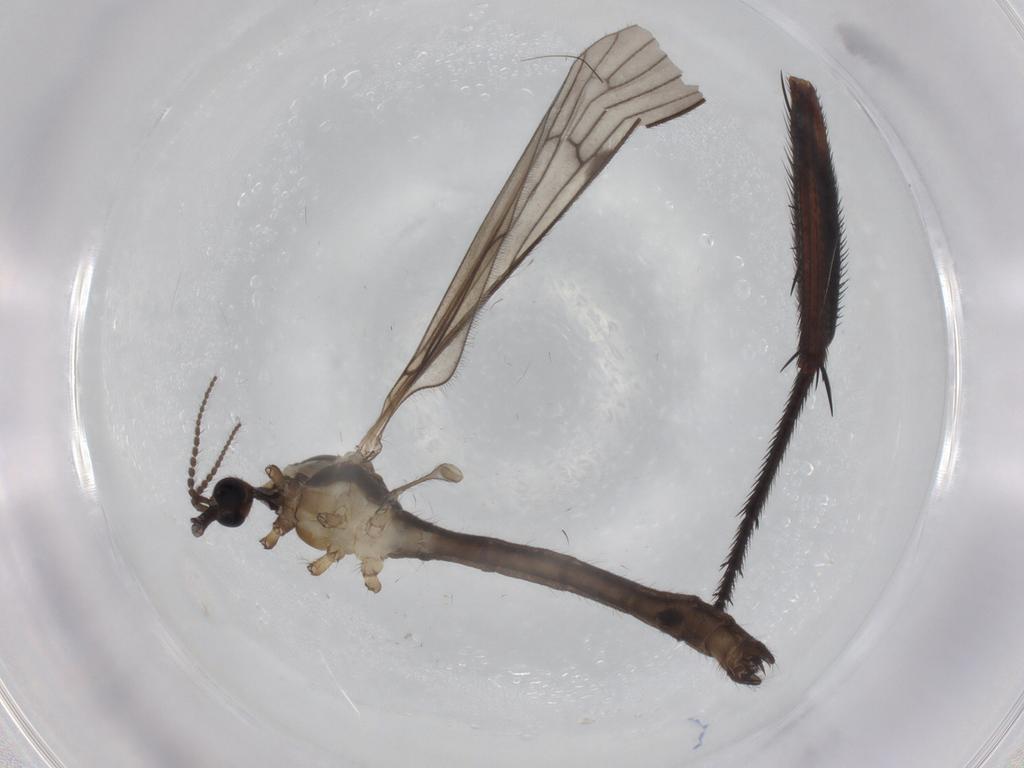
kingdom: Animalia
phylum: Arthropoda
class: Insecta
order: Diptera
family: Limoniidae
